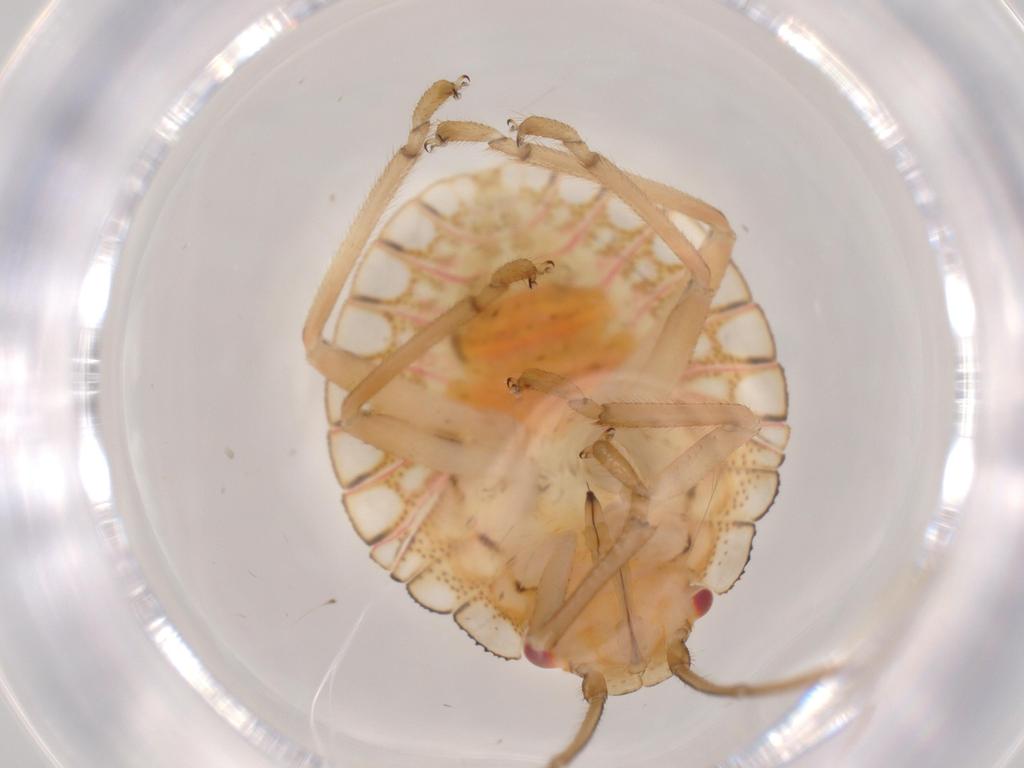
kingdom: Animalia
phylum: Arthropoda
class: Insecta
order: Hemiptera
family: Pentatomidae
